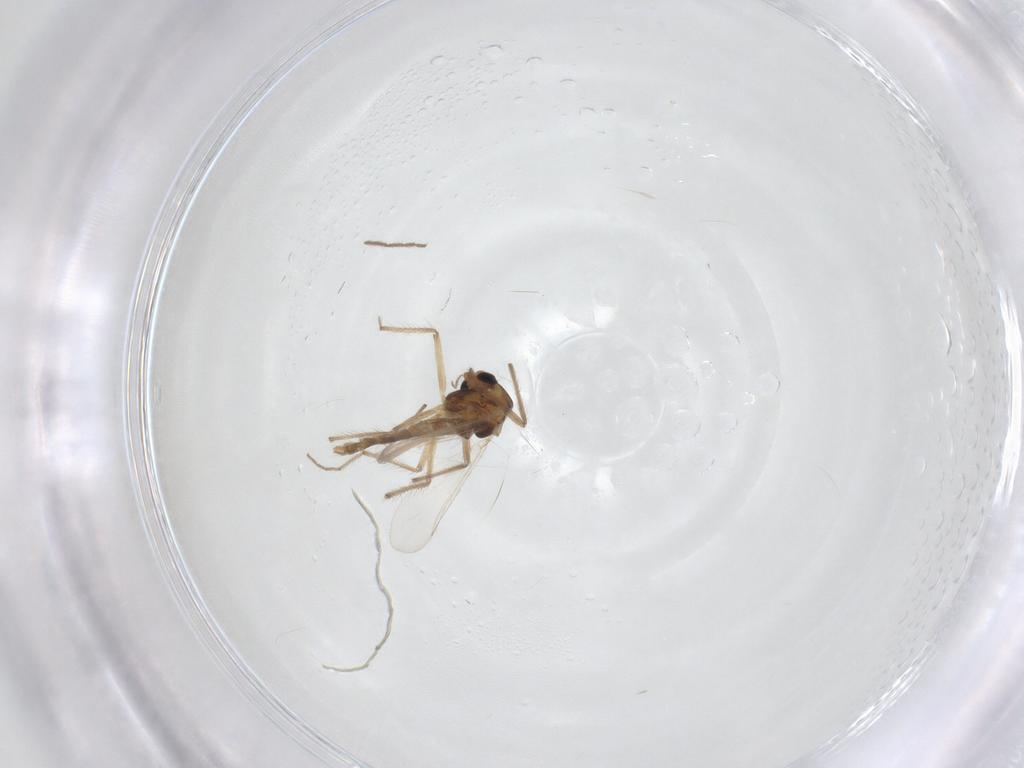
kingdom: Animalia
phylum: Arthropoda
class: Insecta
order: Diptera
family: Chironomidae
